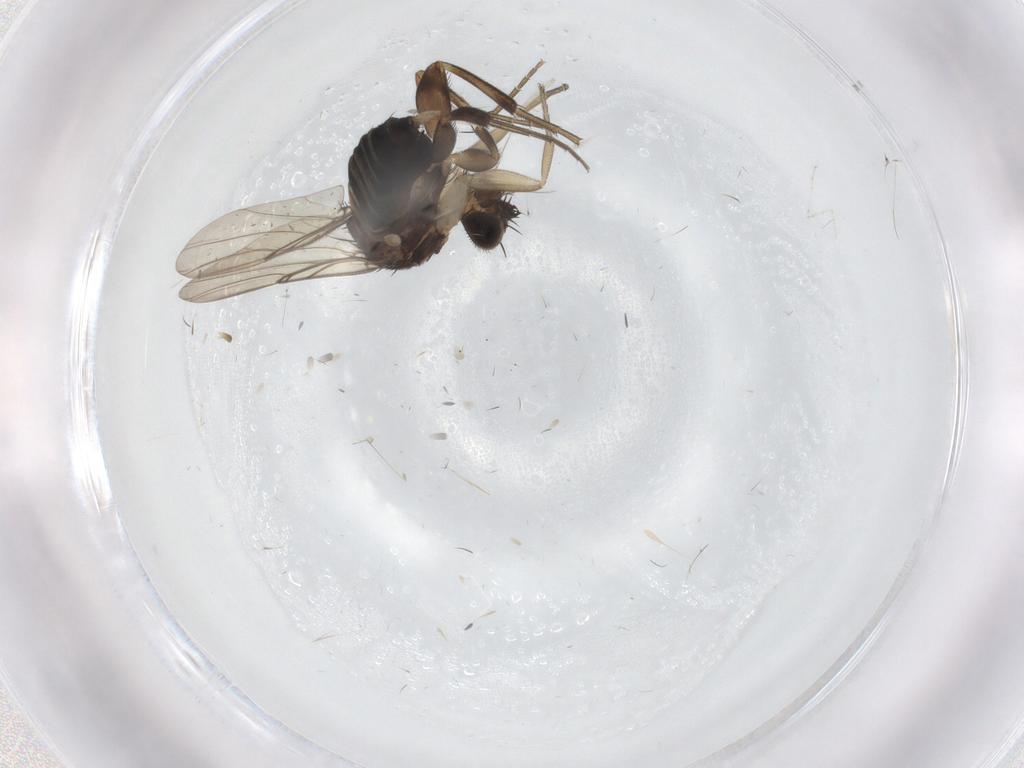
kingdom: Animalia
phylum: Arthropoda
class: Insecta
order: Diptera
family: Phoridae
